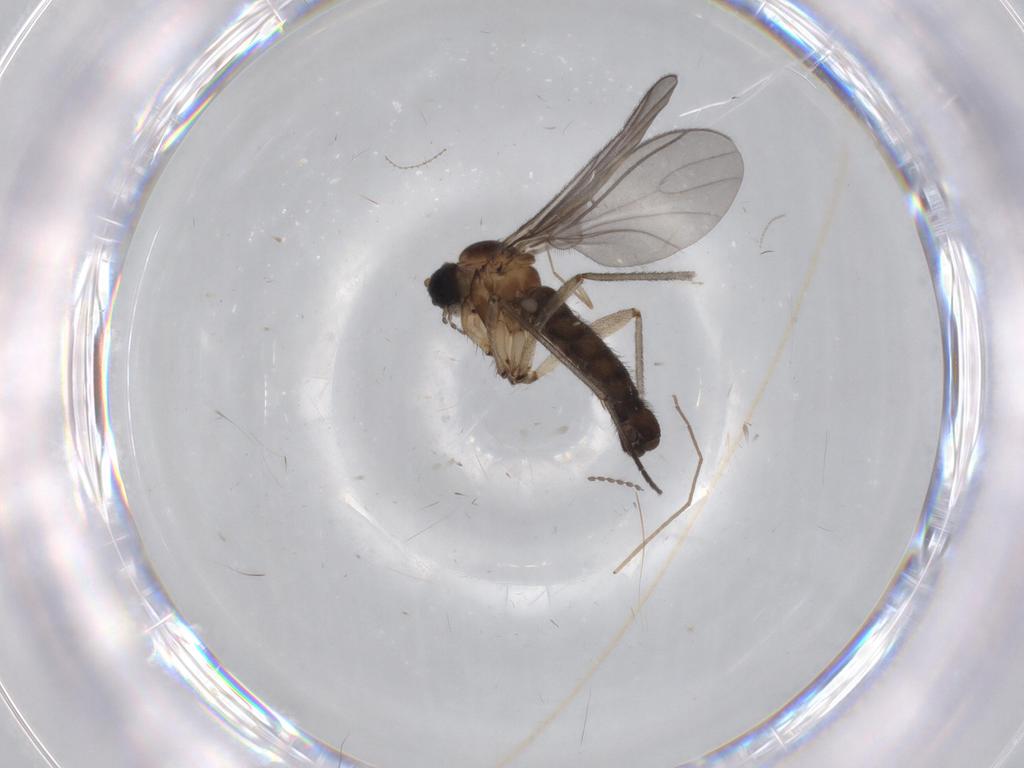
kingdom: Animalia
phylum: Arthropoda
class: Insecta
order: Diptera
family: Sciaridae
